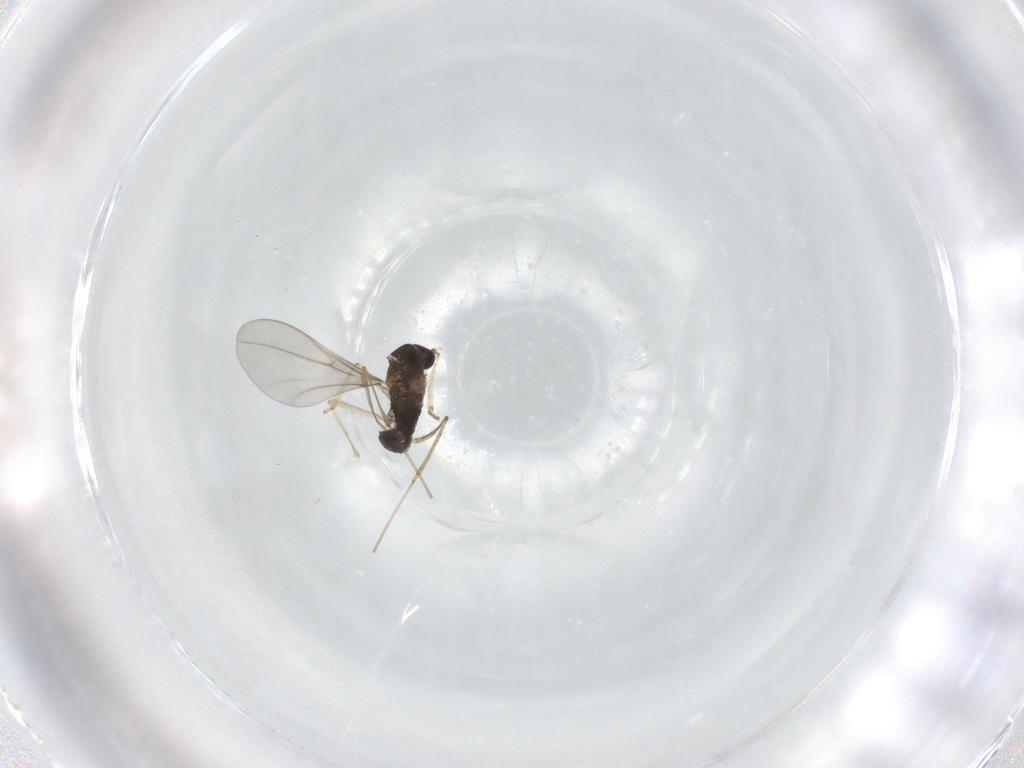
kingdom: Animalia
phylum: Arthropoda
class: Insecta
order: Diptera
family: Cecidomyiidae
